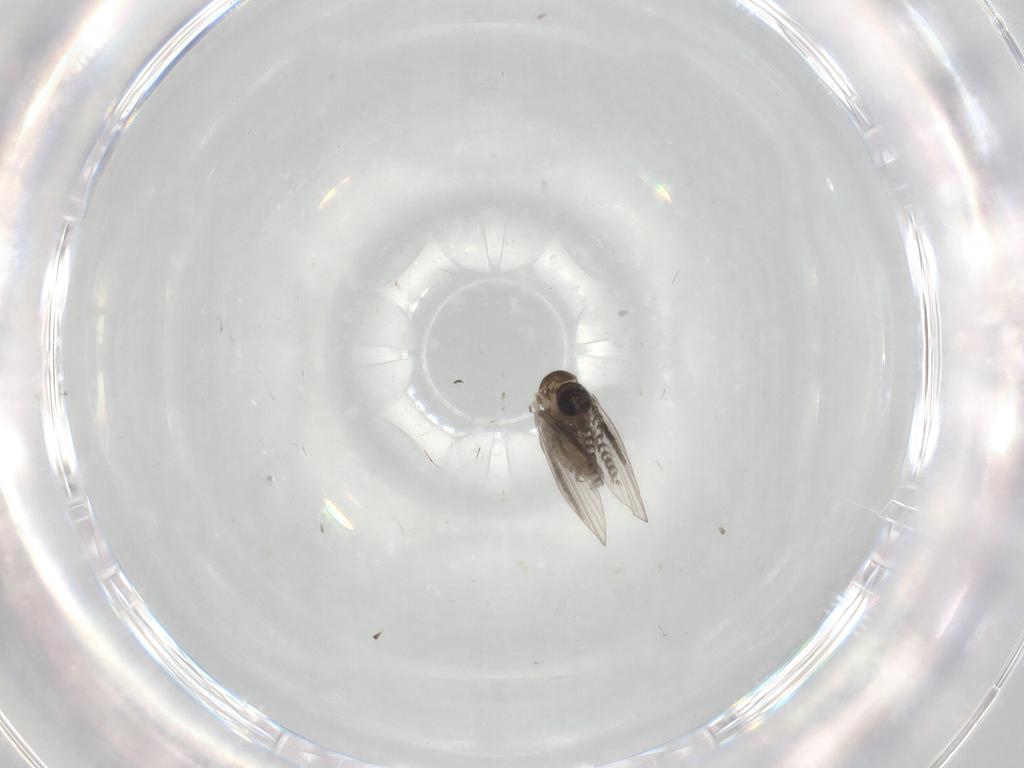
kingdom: Animalia
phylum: Arthropoda
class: Insecta
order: Diptera
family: Psychodidae
